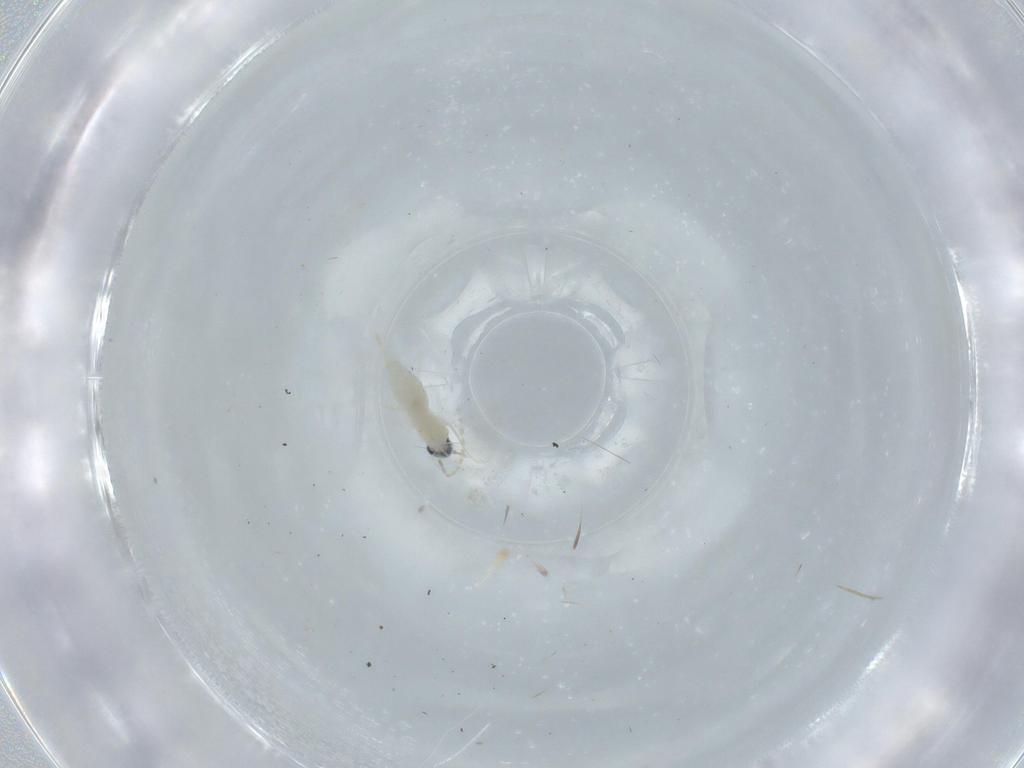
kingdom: Animalia
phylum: Arthropoda
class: Insecta
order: Diptera
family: Cecidomyiidae
